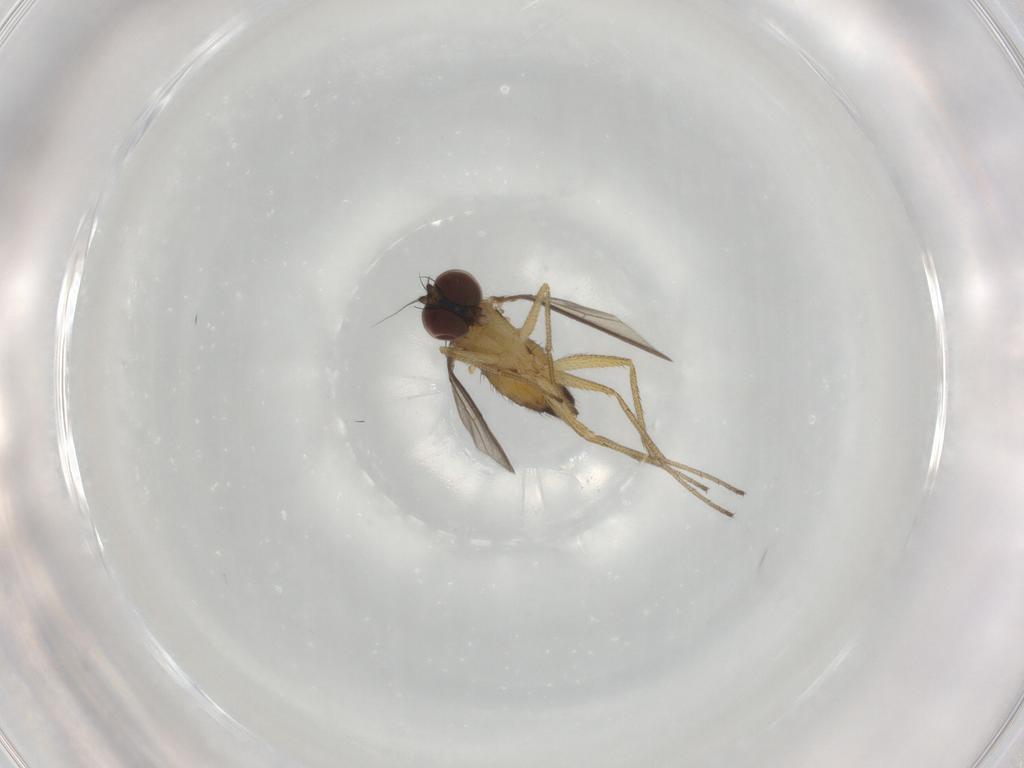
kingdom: Animalia
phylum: Arthropoda
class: Insecta
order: Diptera
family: Dolichopodidae
